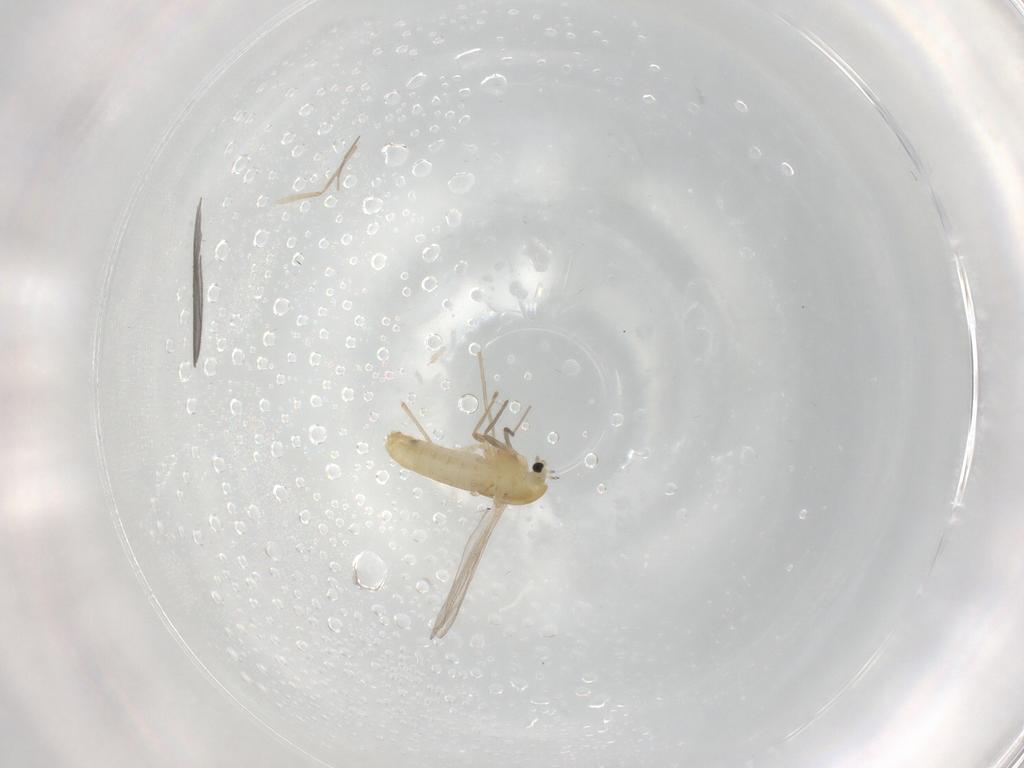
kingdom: Animalia
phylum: Arthropoda
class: Insecta
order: Diptera
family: Chironomidae
